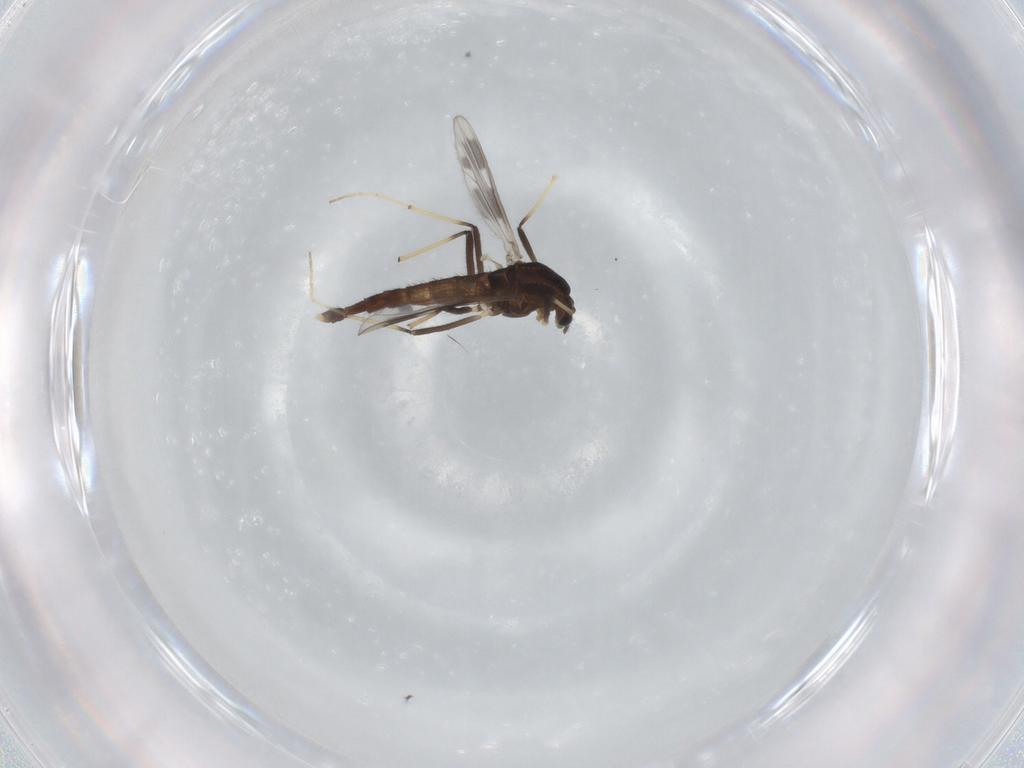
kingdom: Animalia
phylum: Arthropoda
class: Insecta
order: Diptera
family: Chironomidae
